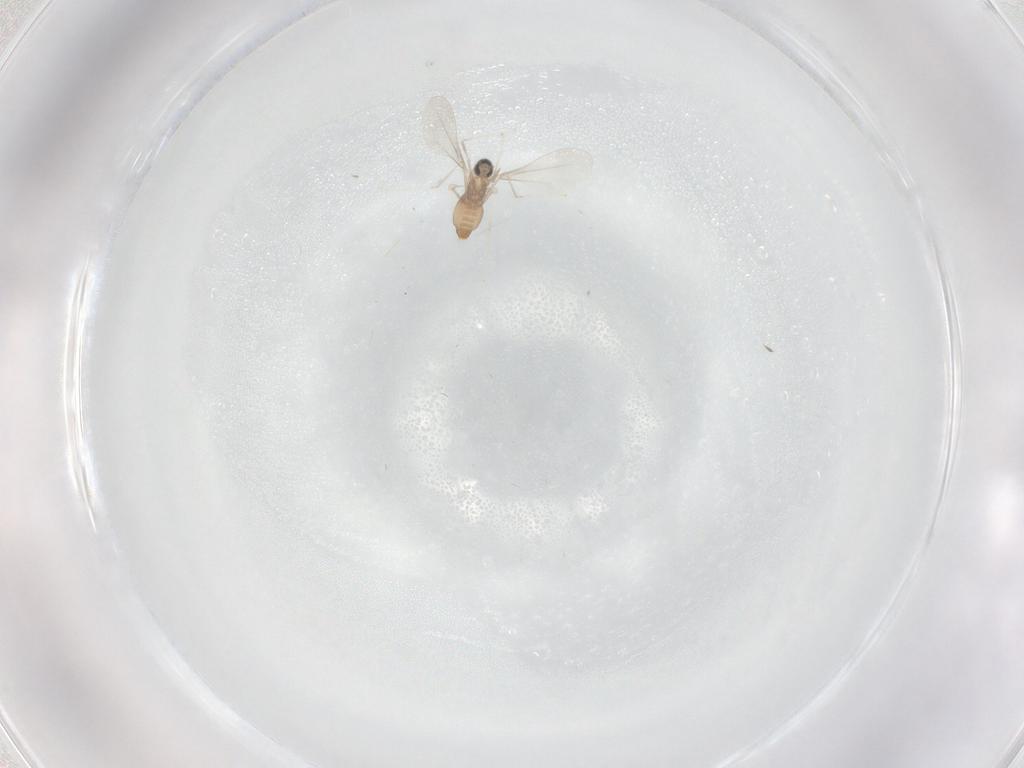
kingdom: Animalia
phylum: Arthropoda
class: Insecta
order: Diptera
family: Cecidomyiidae
